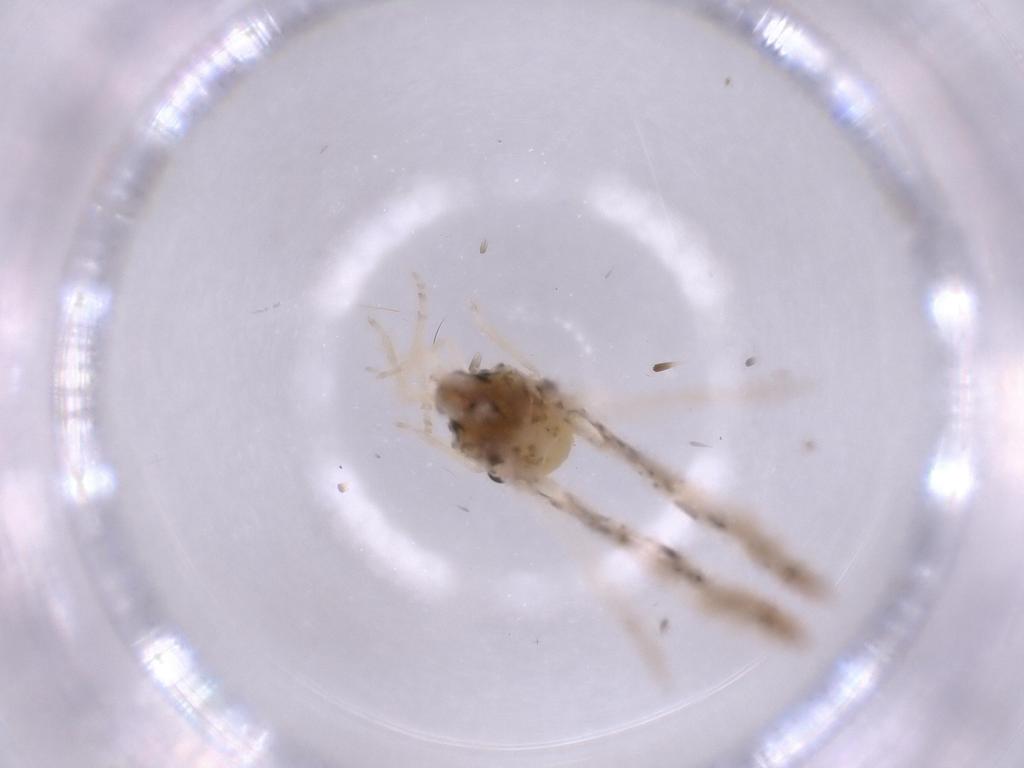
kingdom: Animalia
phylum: Arthropoda
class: Insecta
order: Hemiptera
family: Derbidae
